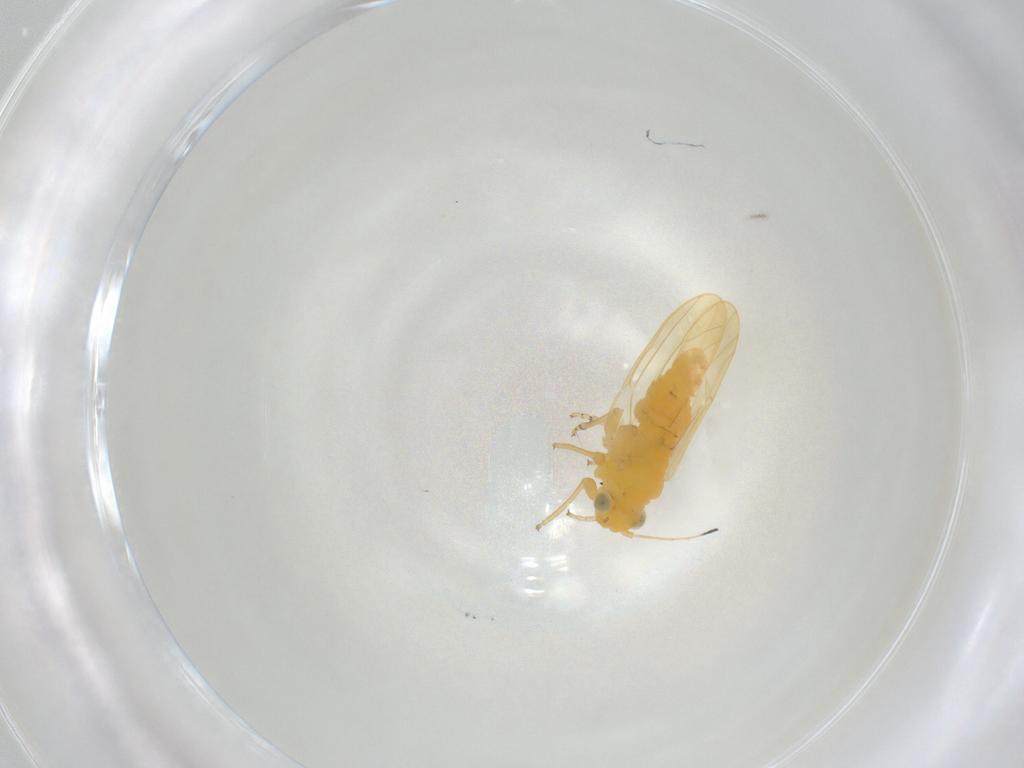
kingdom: Animalia
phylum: Arthropoda
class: Insecta
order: Hemiptera
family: Psylloidea_incertae_sedis
